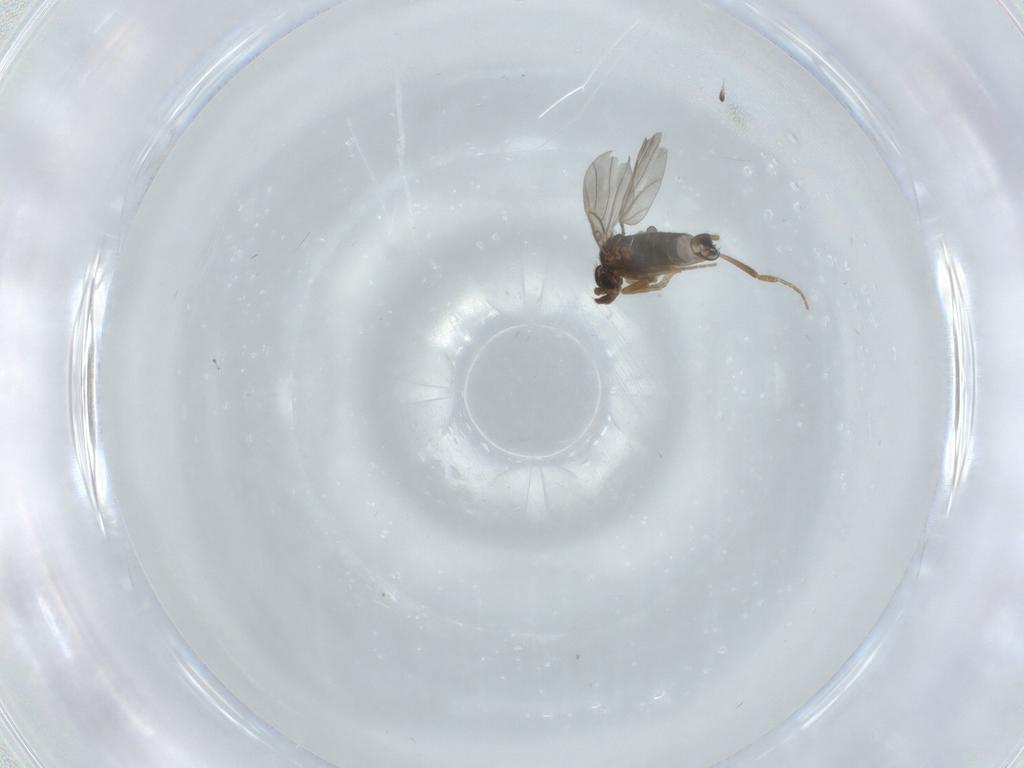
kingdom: Animalia
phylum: Arthropoda
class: Insecta
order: Diptera
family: Phoridae
